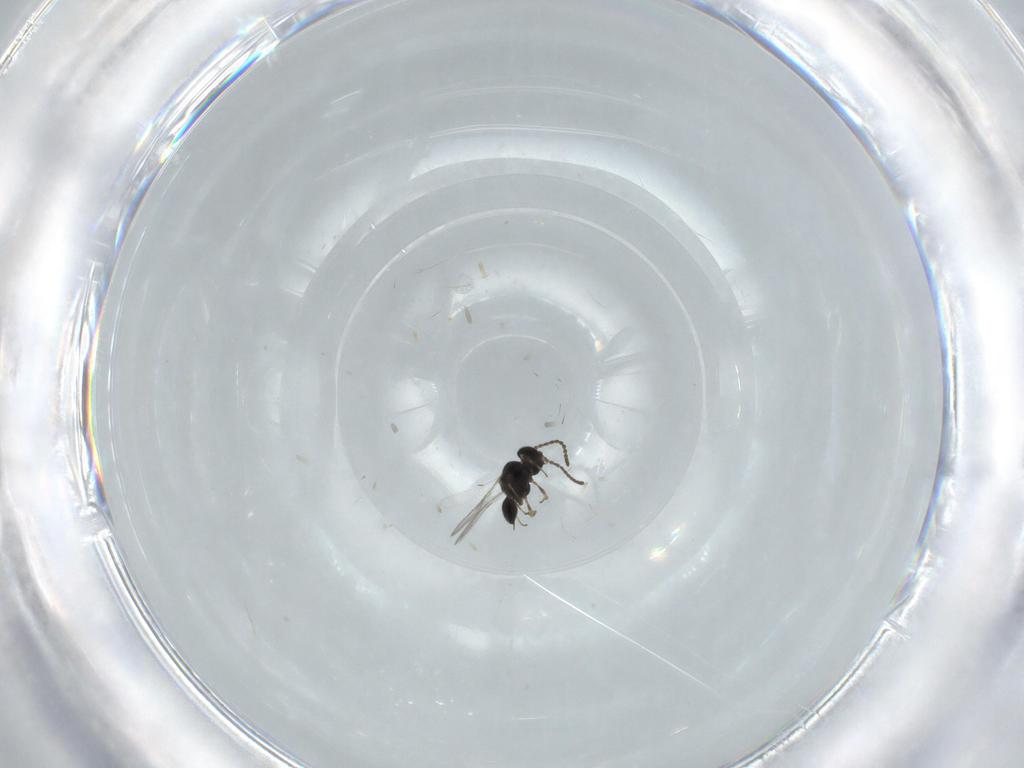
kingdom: Animalia
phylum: Arthropoda
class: Insecta
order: Hymenoptera
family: Scelionidae
